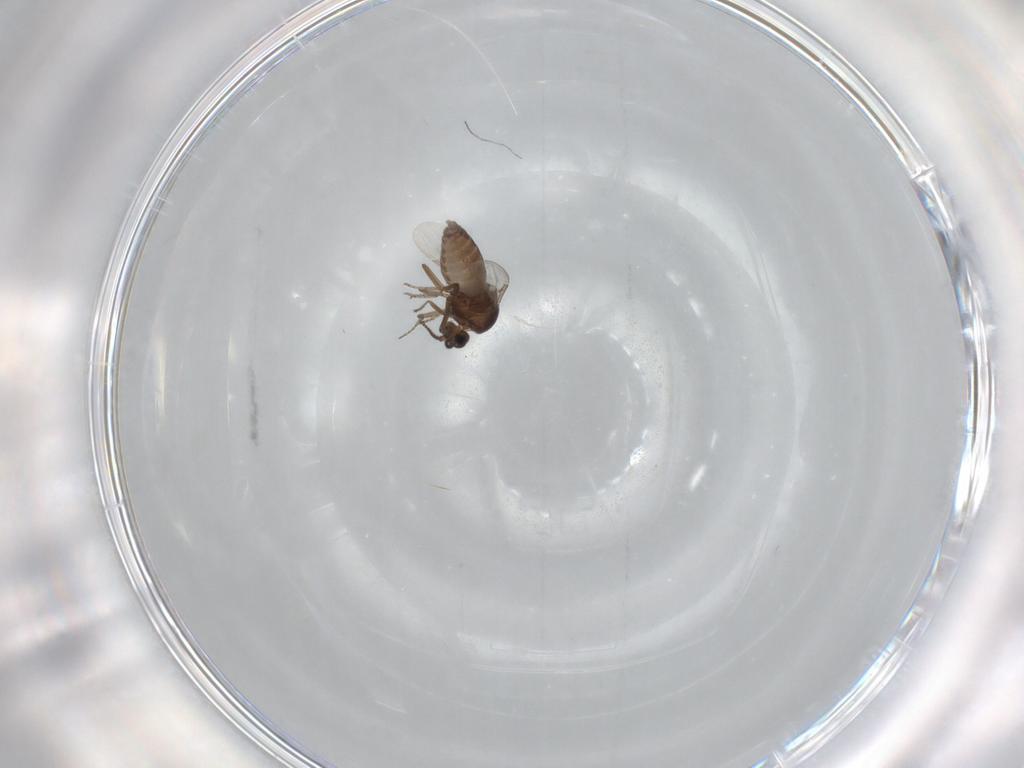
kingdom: Animalia
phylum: Arthropoda
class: Insecta
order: Diptera
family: Ceratopogonidae
